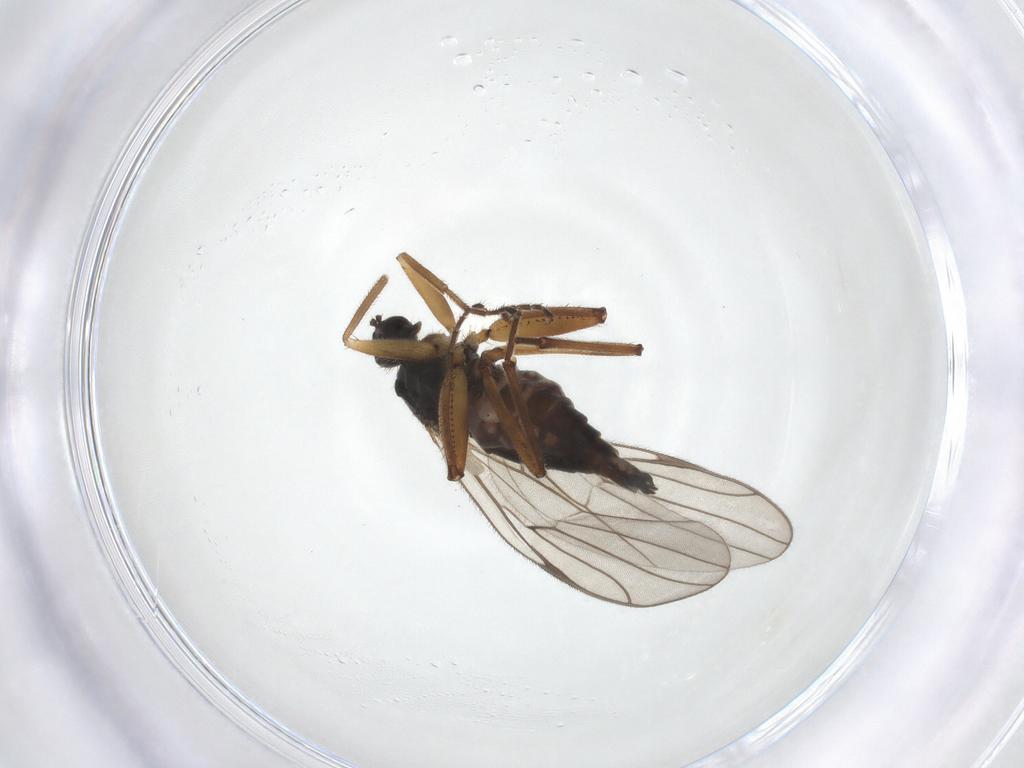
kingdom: Animalia
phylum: Arthropoda
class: Insecta
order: Diptera
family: Hybotidae
